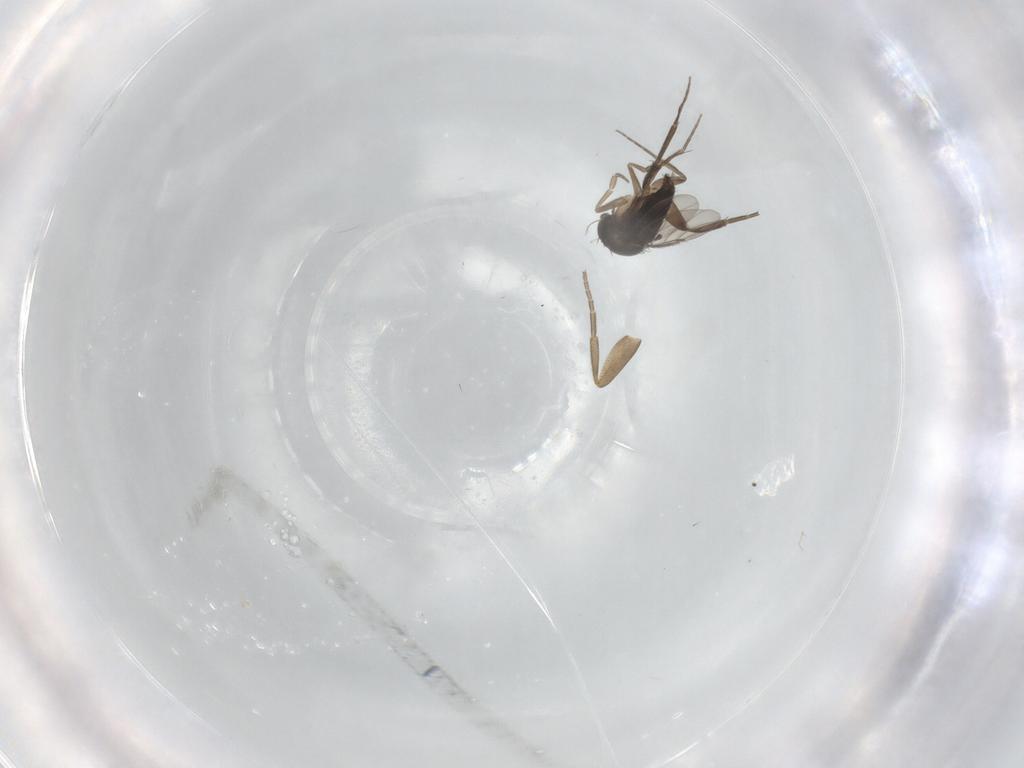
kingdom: Animalia
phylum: Arthropoda
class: Insecta
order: Diptera
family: Phoridae
